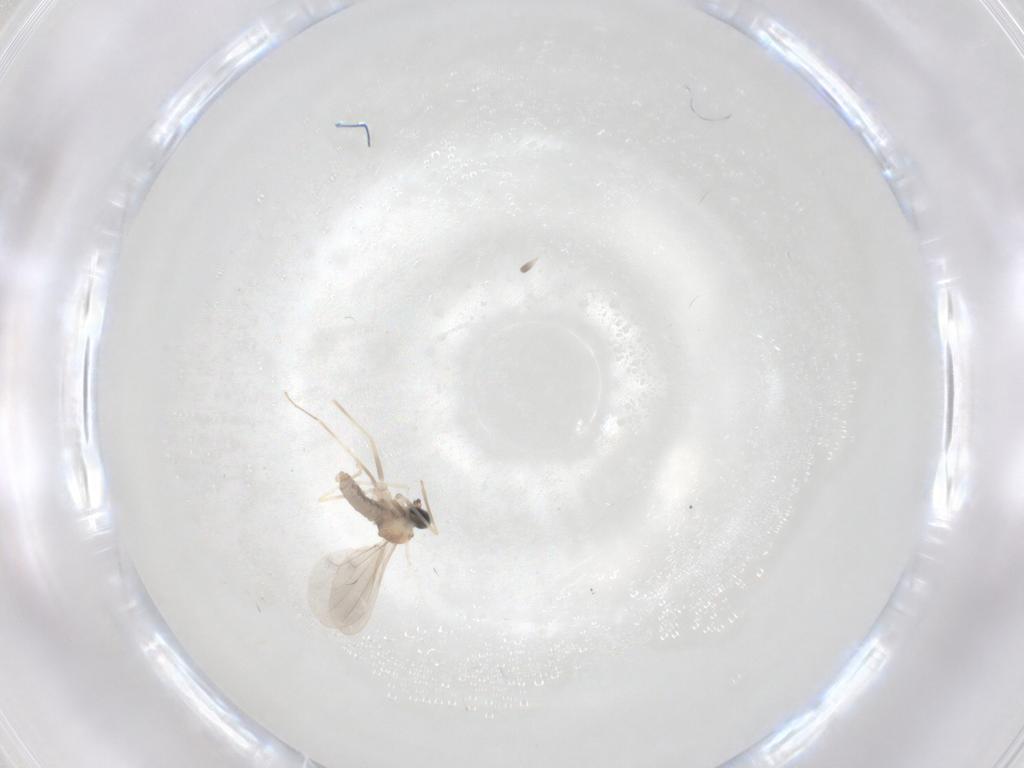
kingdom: Animalia
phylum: Arthropoda
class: Insecta
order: Diptera
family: Cecidomyiidae
